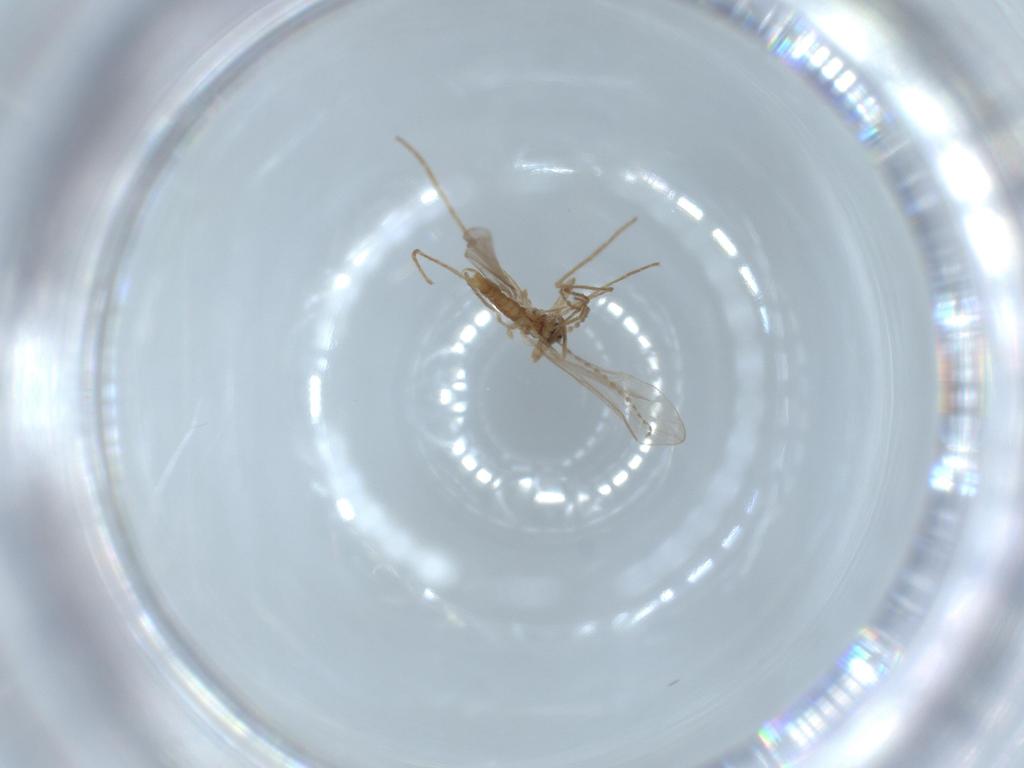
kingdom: Animalia
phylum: Arthropoda
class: Insecta
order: Diptera
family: Cecidomyiidae
